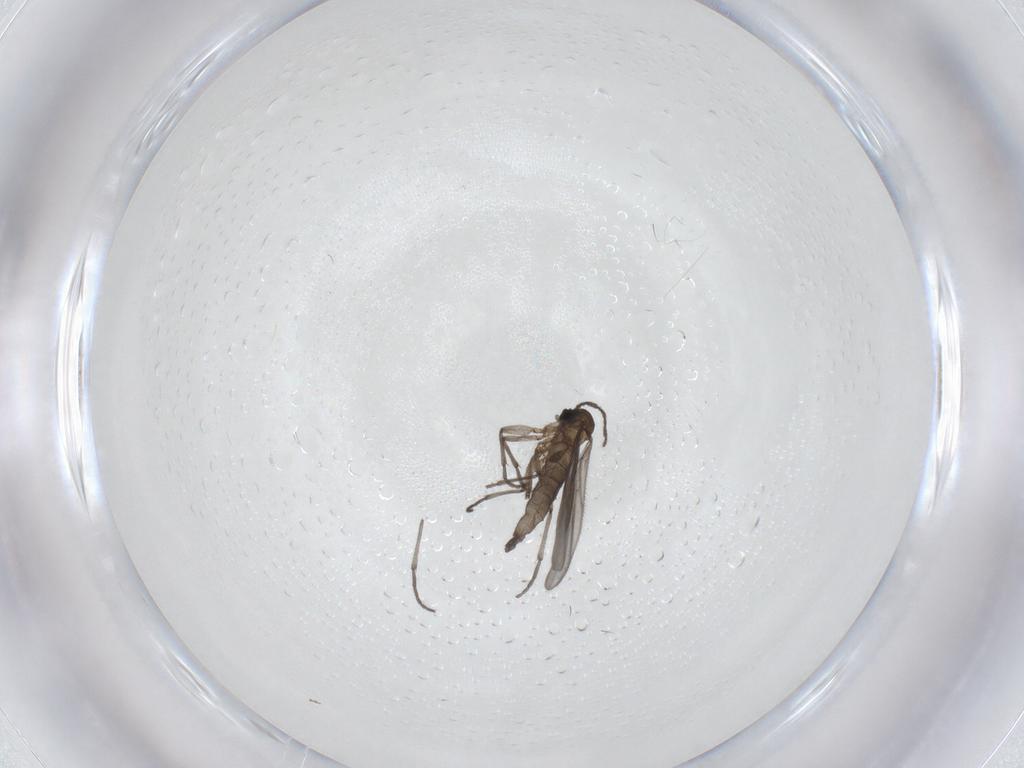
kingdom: Animalia
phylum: Arthropoda
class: Insecta
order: Diptera
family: Sciaridae
